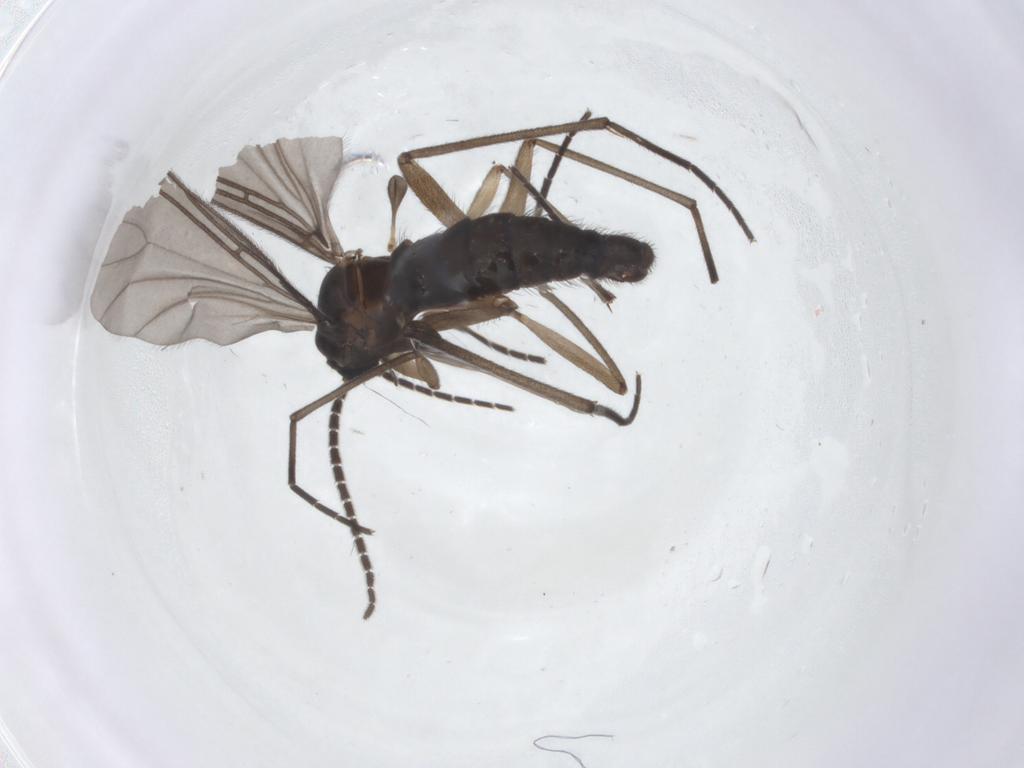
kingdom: Animalia
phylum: Arthropoda
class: Insecta
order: Diptera
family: Sciaridae
